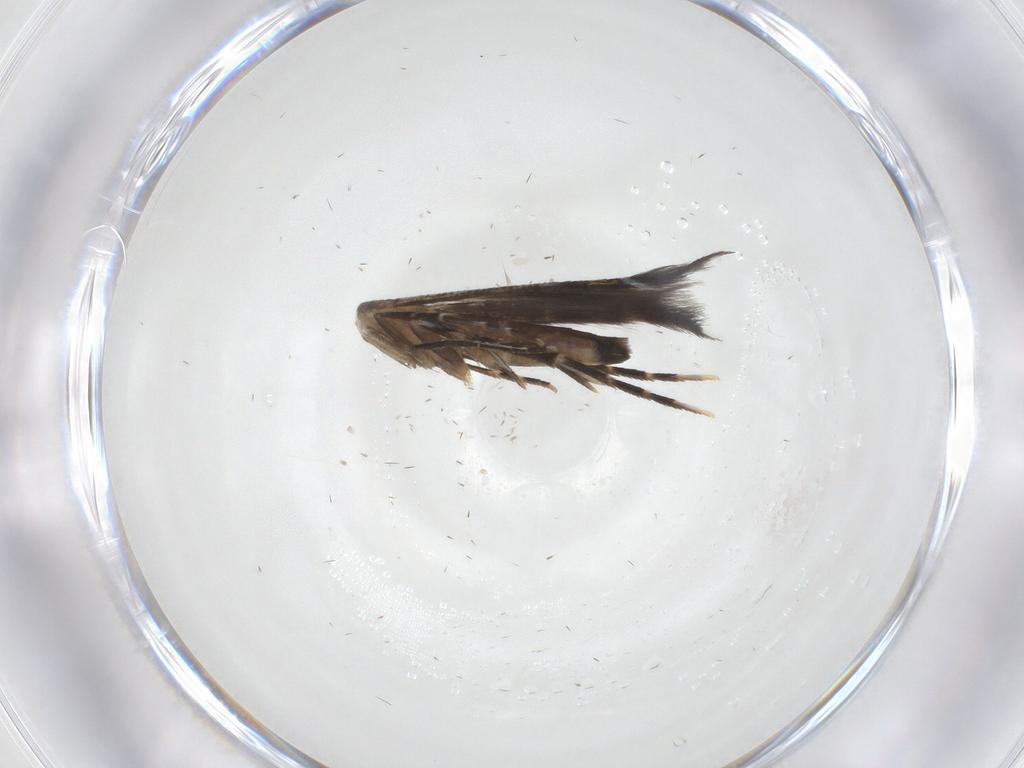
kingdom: Animalia
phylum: Arthropoda
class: Insecta
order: Lepidoptera
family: Cosmopterigidae
